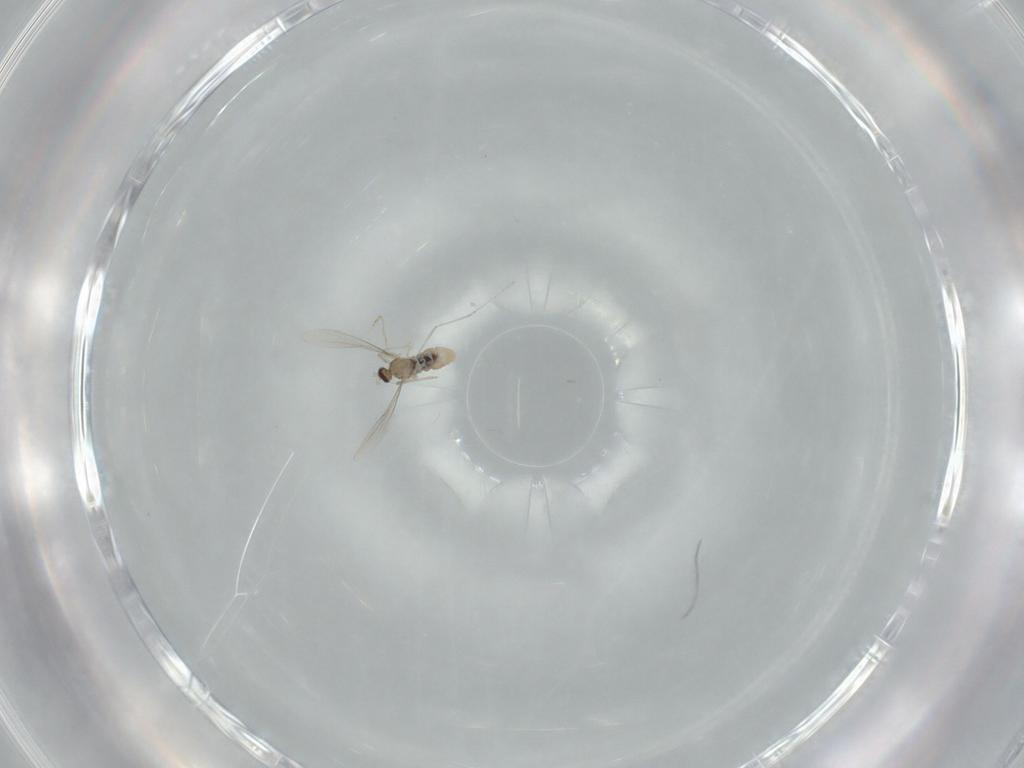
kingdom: Animalia
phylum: Arthropoda
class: Insecta
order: Diptera
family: Cecidomyiidae
